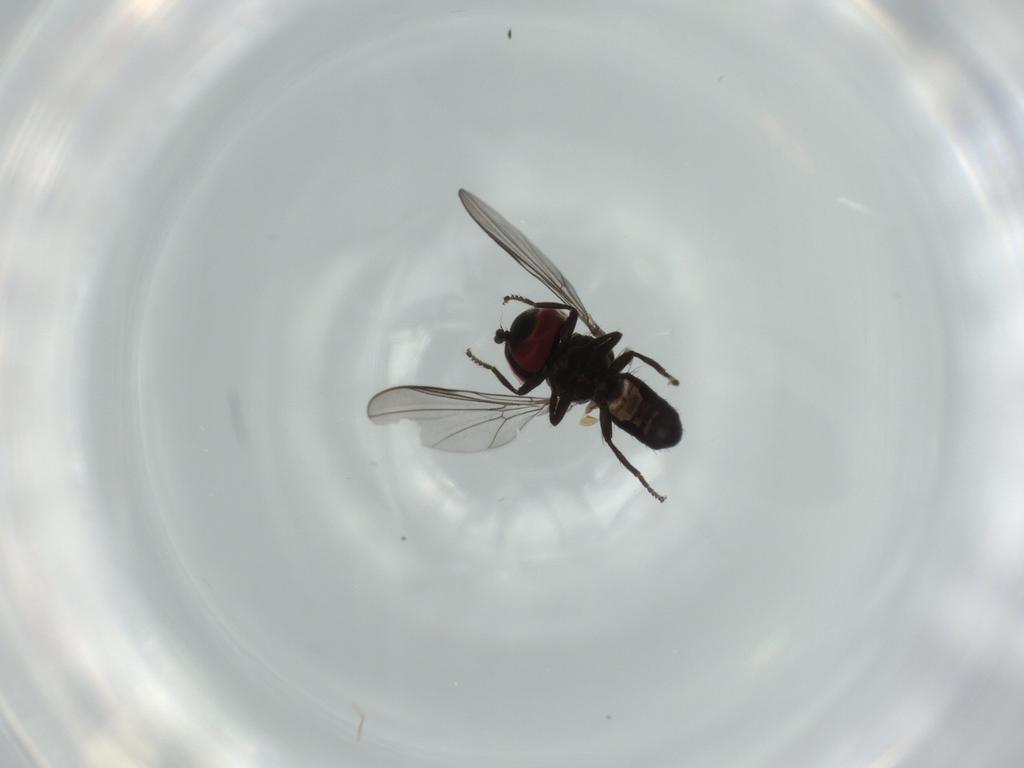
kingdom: Animalia
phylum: Arthropoda
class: Insecta
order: Diptera
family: Pipunculidae
